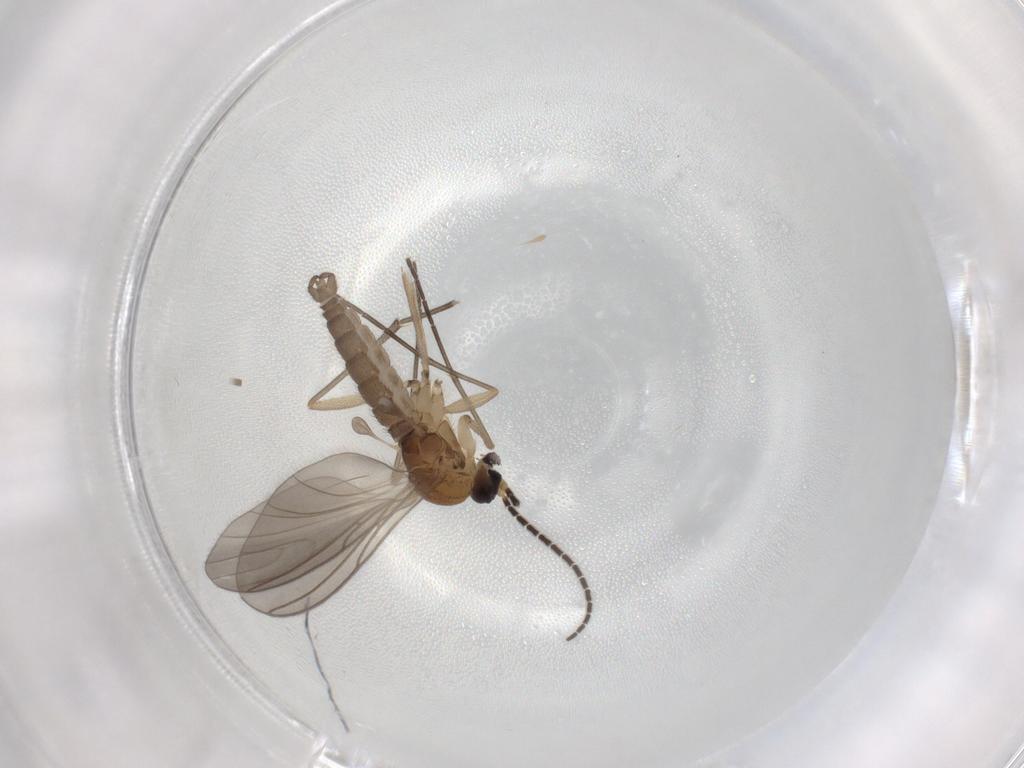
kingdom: Animalia
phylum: Arthropoda
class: Insecta
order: Diptera
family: Sciaridae
